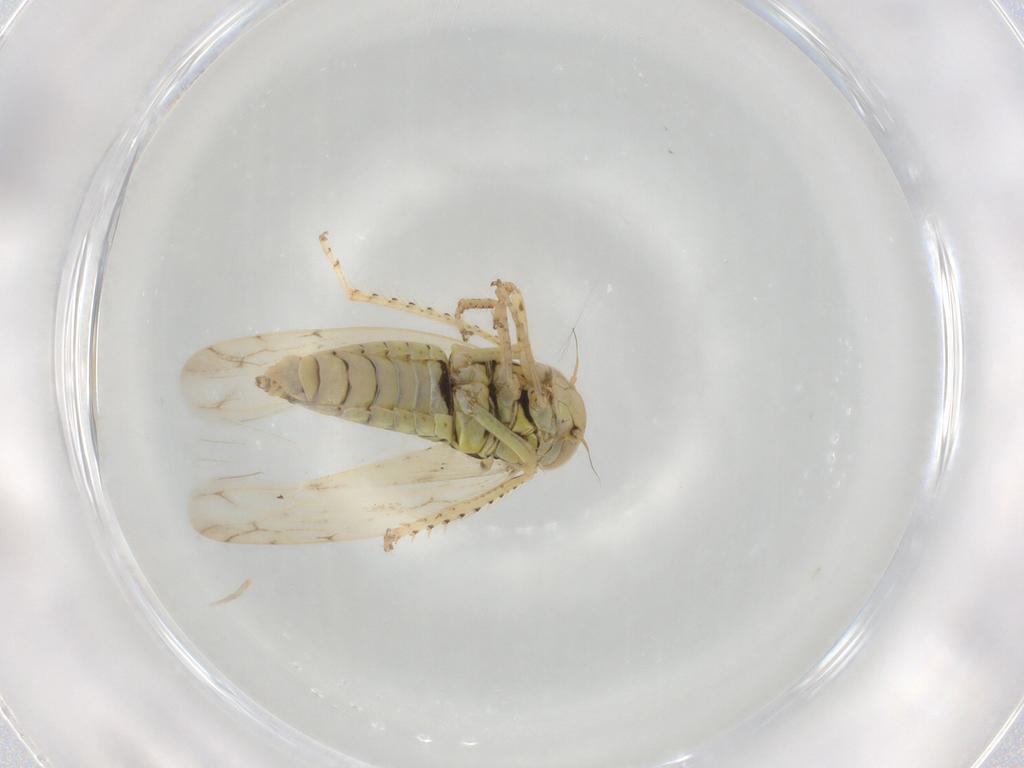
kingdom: Animalia
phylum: Arthropoda
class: Insecta
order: Hemiptera
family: Cicadellidae
